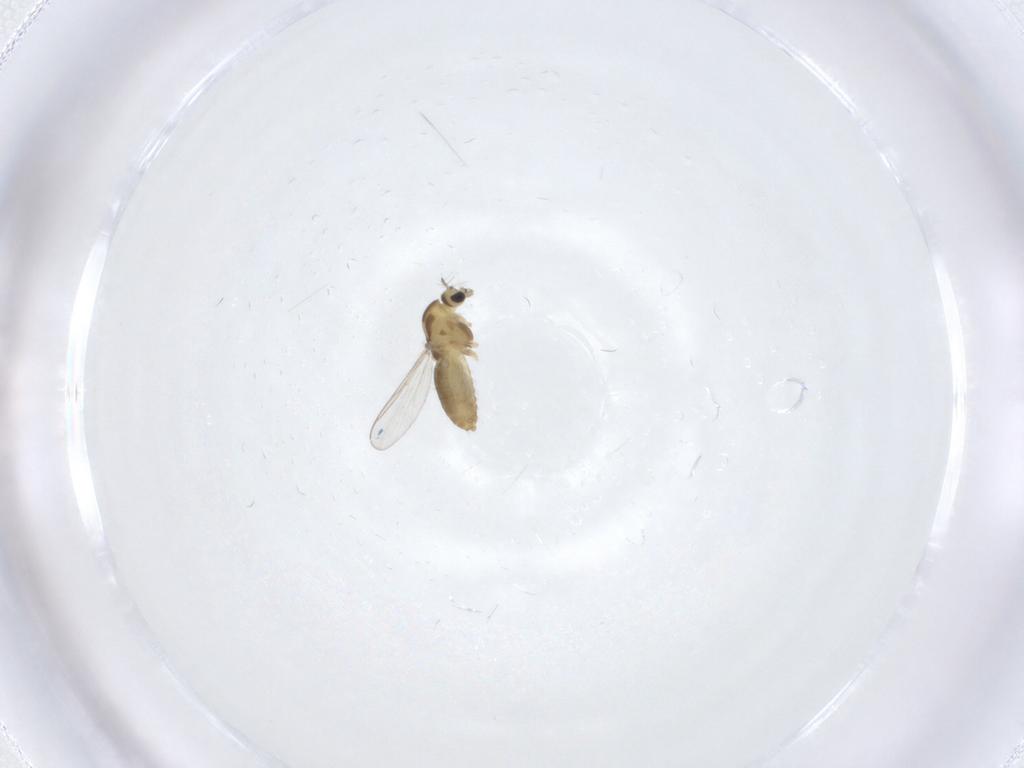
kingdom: Animalia
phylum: Arthropoda
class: Insecta
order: Diptera
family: Chironomidae
